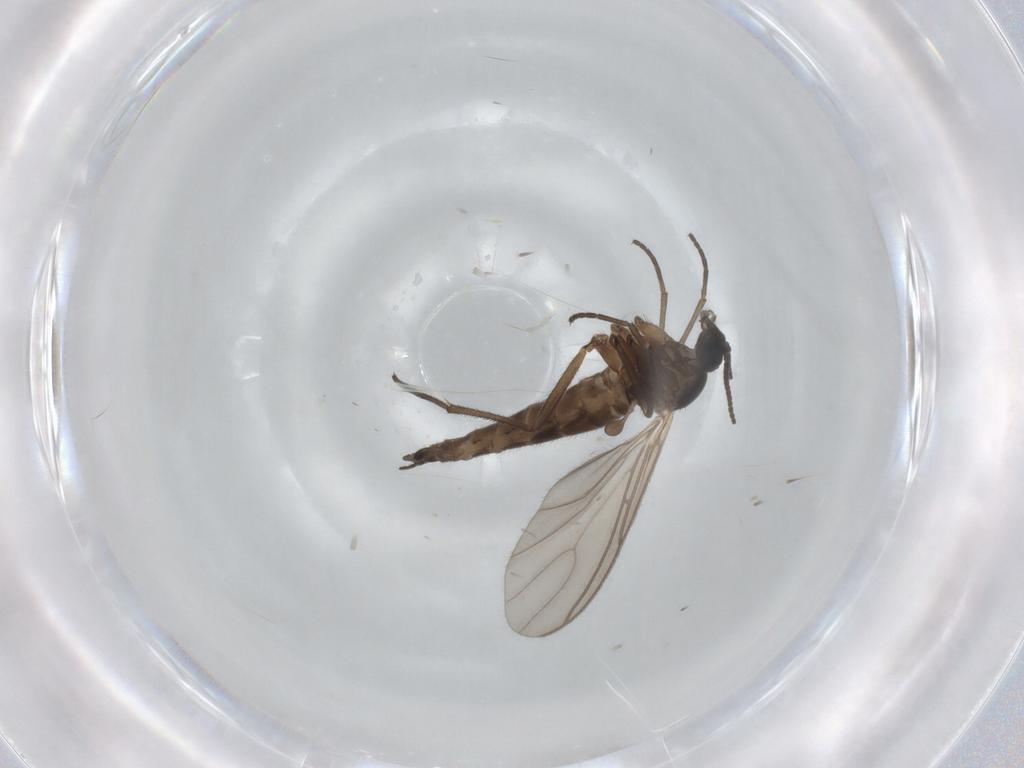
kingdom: Animalia
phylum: Arthropoda
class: Insecta
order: Diptera
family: Sciaridae
